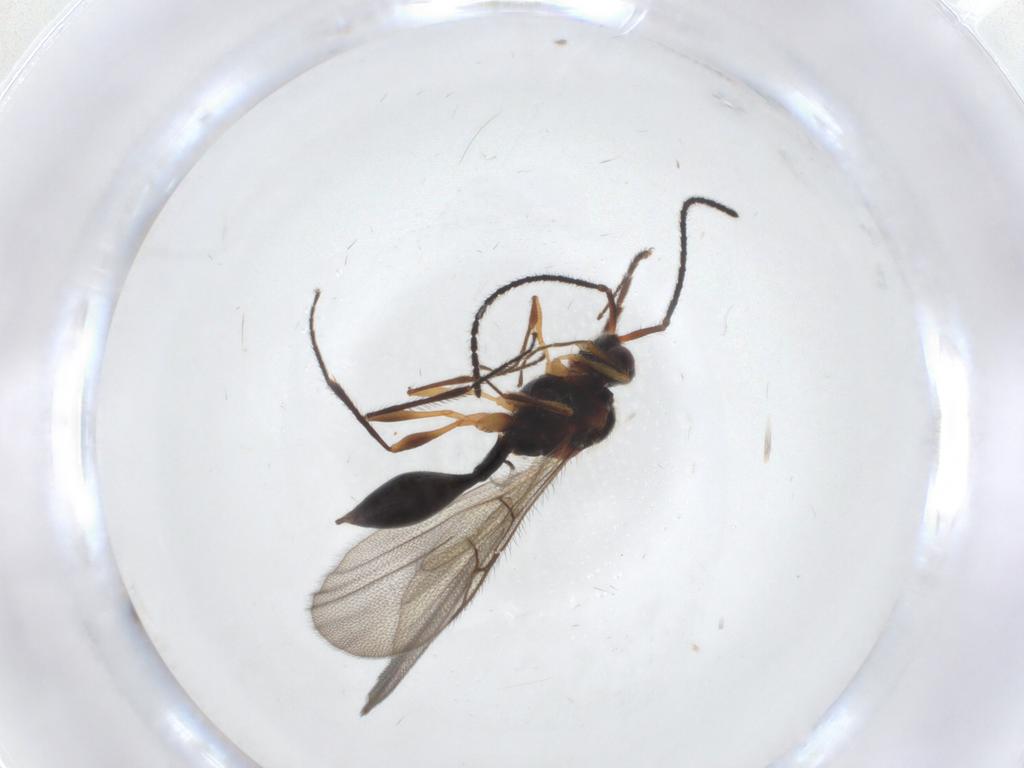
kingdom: Animalia
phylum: Arthropoda
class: Insecta
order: Hymenoptera
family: Diapriidae
